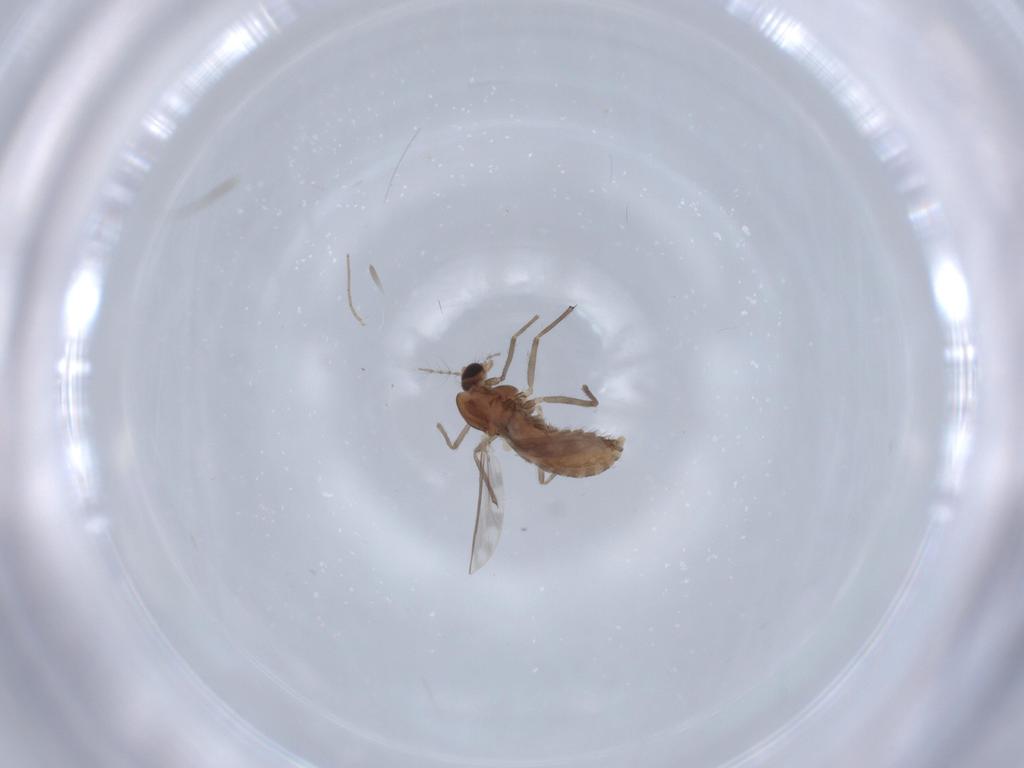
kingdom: Animalia
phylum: Arthropoda
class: Insecta
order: Diptera
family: Chironomidae
